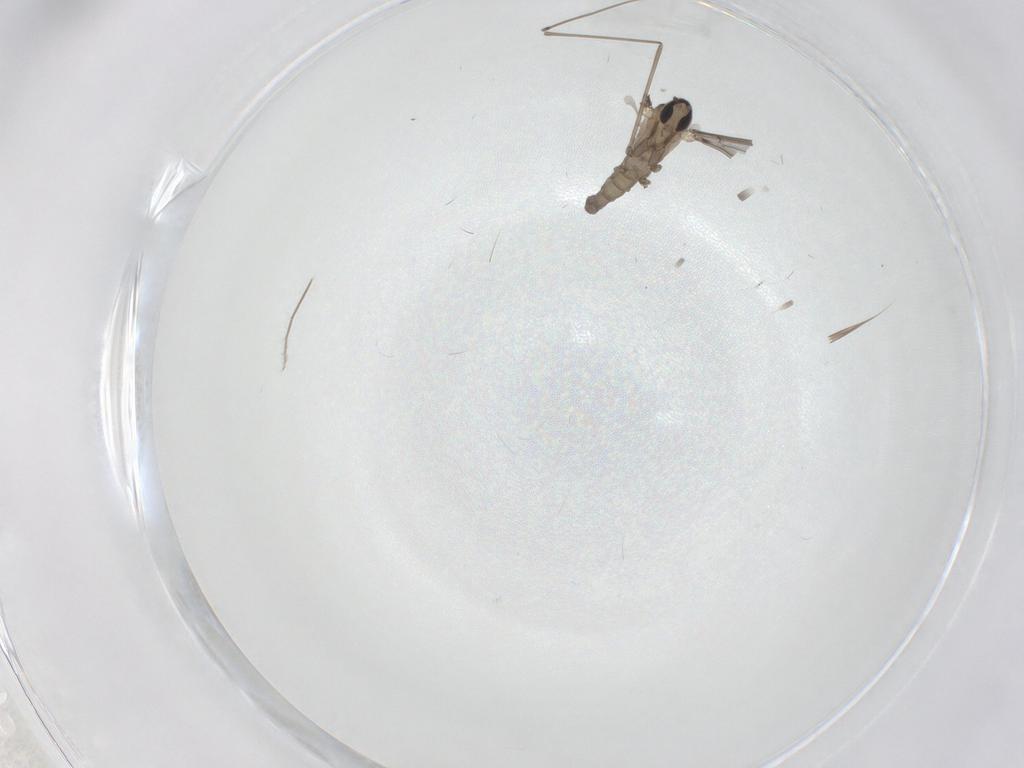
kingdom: Animalia
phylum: Arthropoda
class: Insecta
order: Diptera
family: Cecidomyiidae
